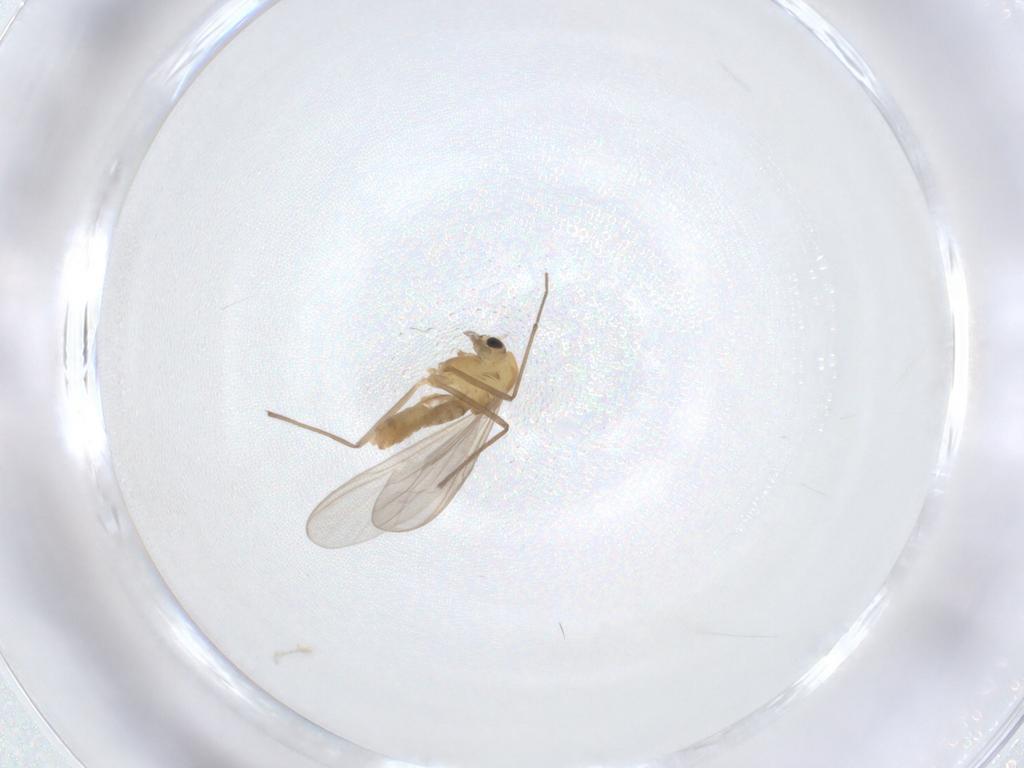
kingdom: Animalia
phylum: Arthropoda
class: Insecta
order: Diptera
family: Chironomidae
